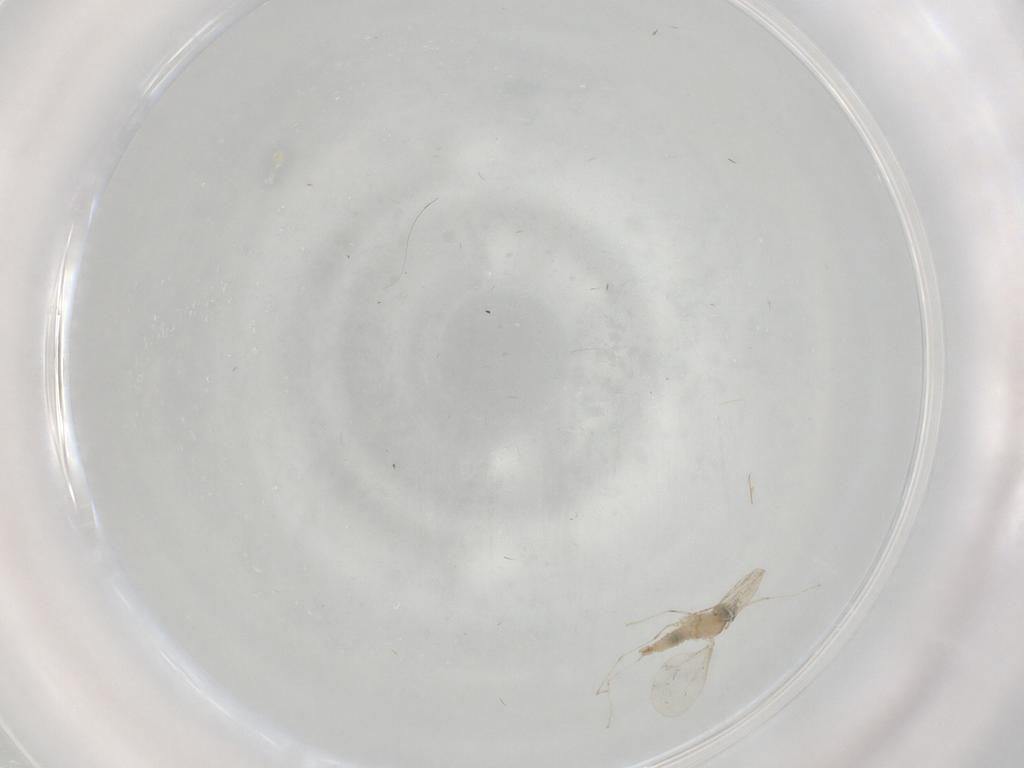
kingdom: Animalia
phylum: Arthropoda
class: Insecta
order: Diptera
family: Cecidomyiidae
